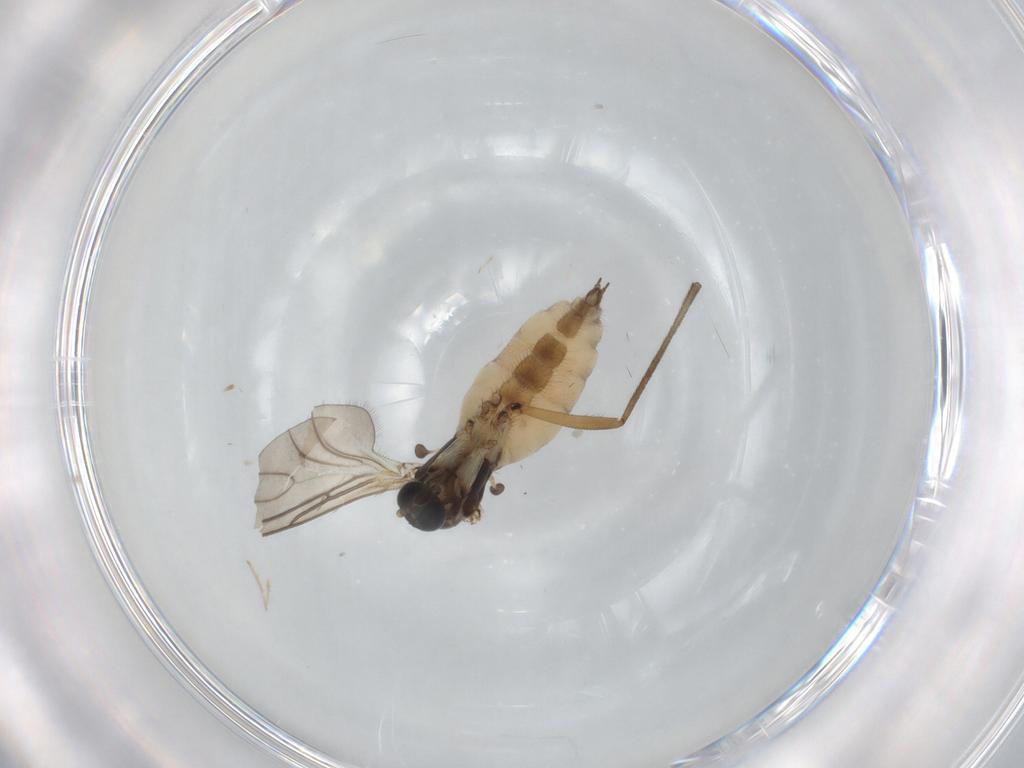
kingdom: Animalia
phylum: Arthropoda
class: Insecta
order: Diptera
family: Sciaridae
